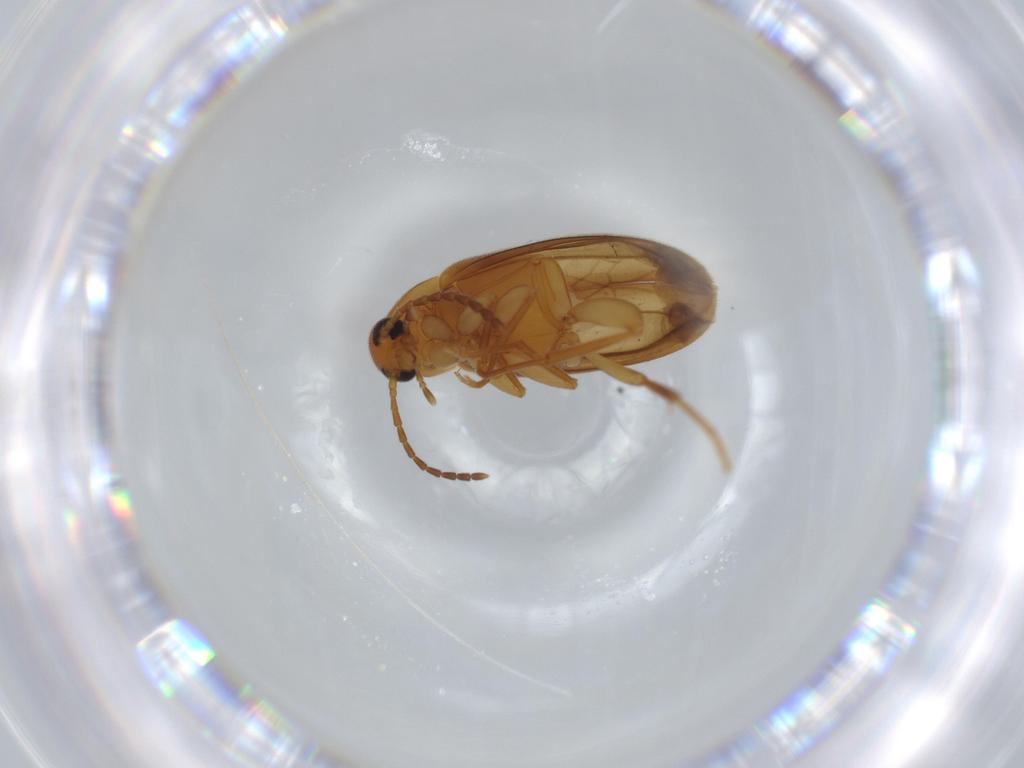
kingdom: Animalia
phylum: Arthropoda
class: Insecta
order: Coleoptera
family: Scraptiidae
